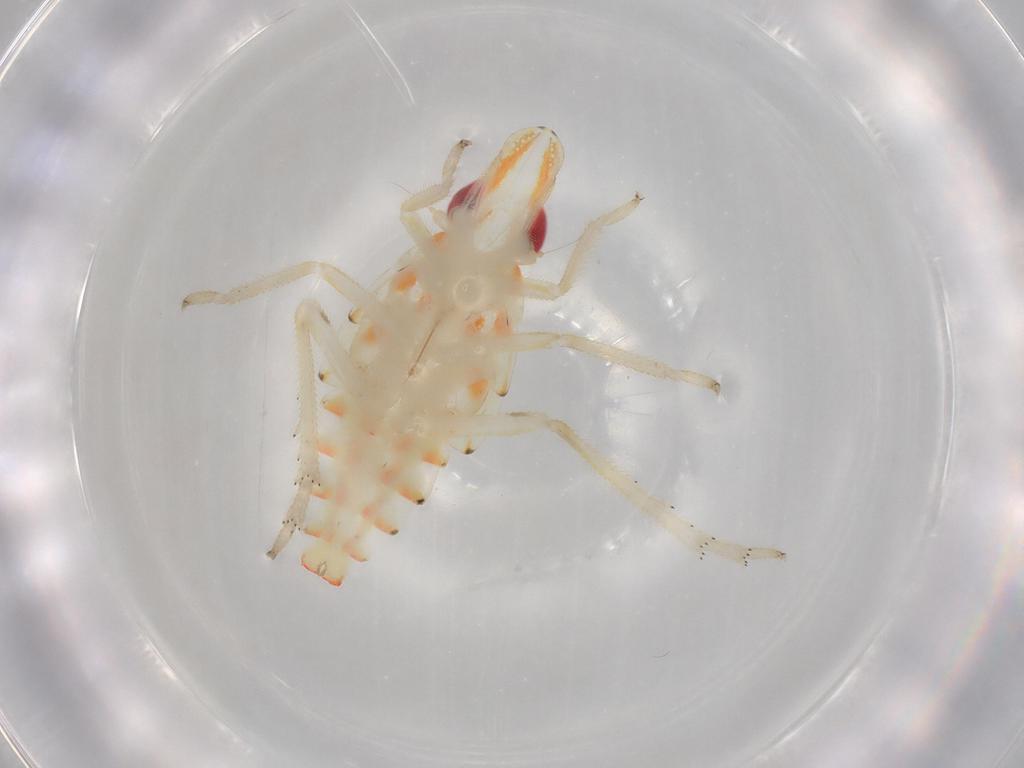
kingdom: Animalia
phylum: Arthropoda
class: Insecta
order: Hemiptera
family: Tropiduchidae
